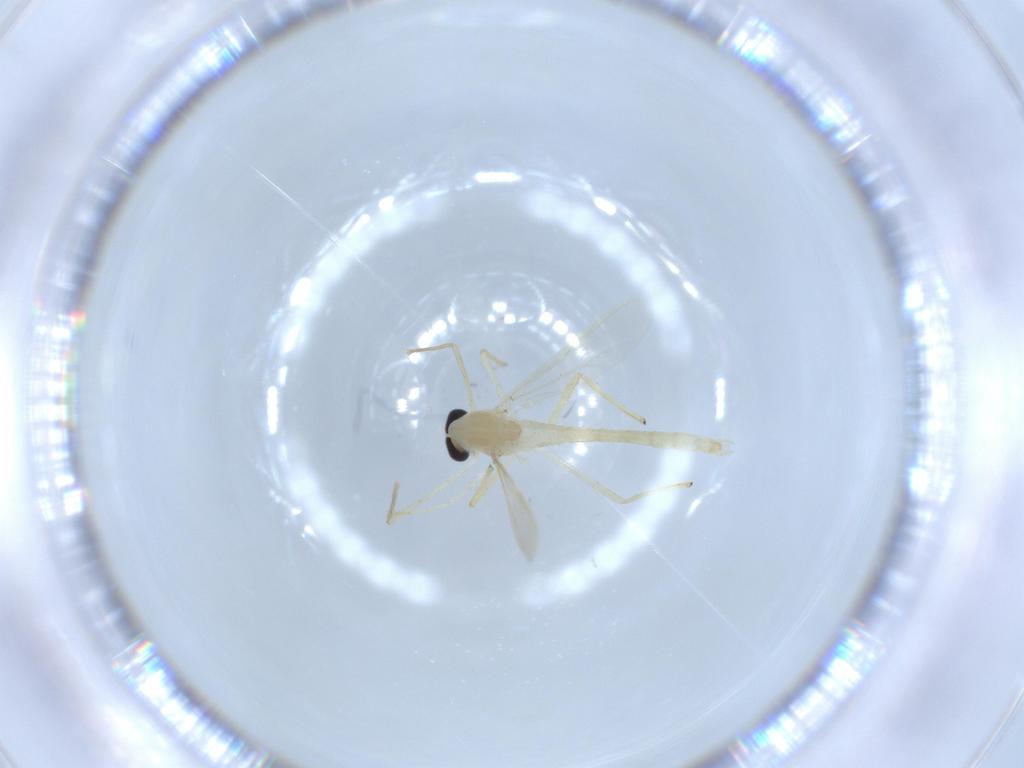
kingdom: Animalia
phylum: Arthropoda
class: Insecta
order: Diptera
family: Chironomidae
